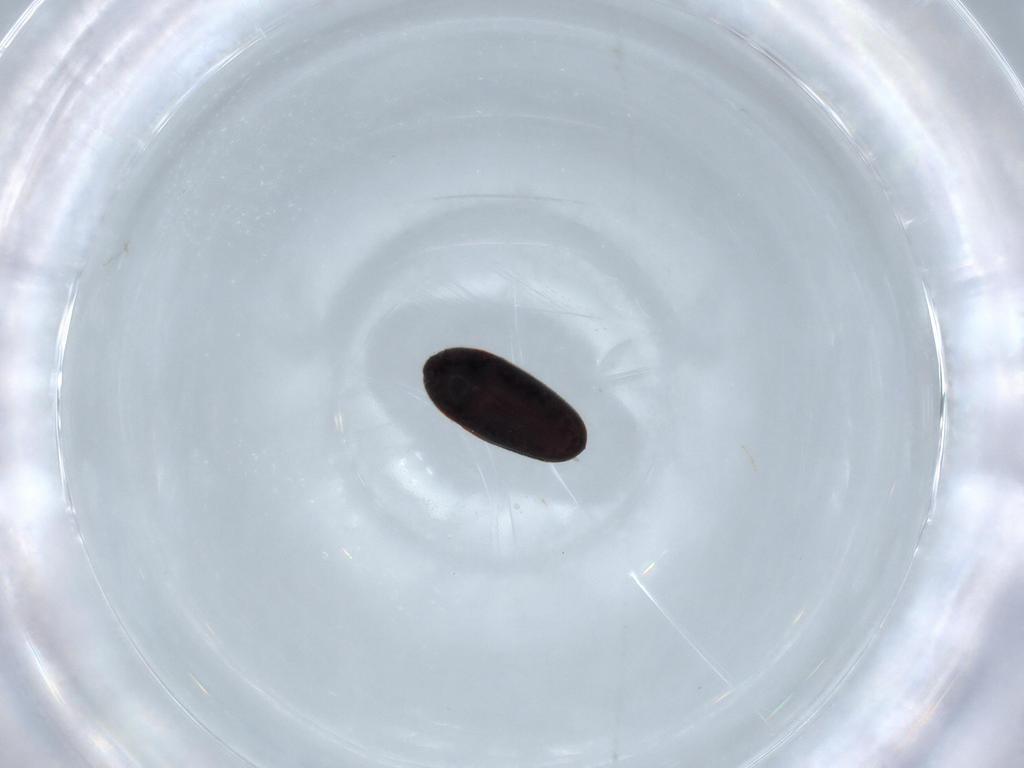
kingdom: Animalia
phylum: Arthropoda
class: Insecta
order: Coleoptera
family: Throscidae
